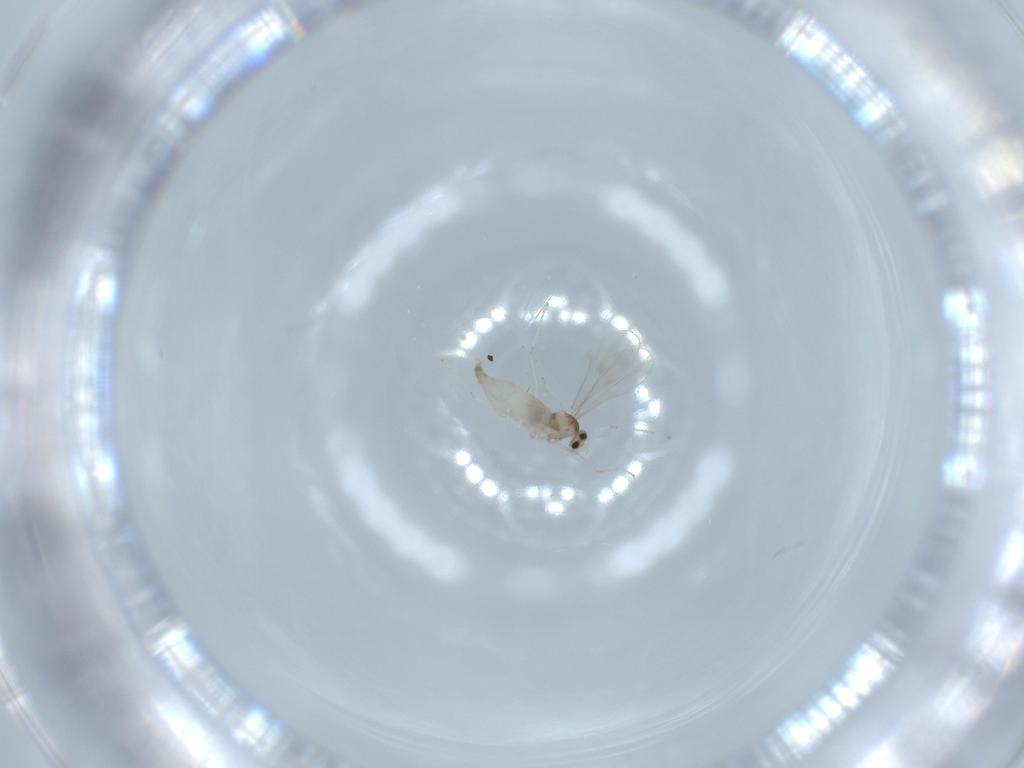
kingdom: Animalia
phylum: Arthropoda
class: Insecta
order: Diptera
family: Cecidomyiidae
